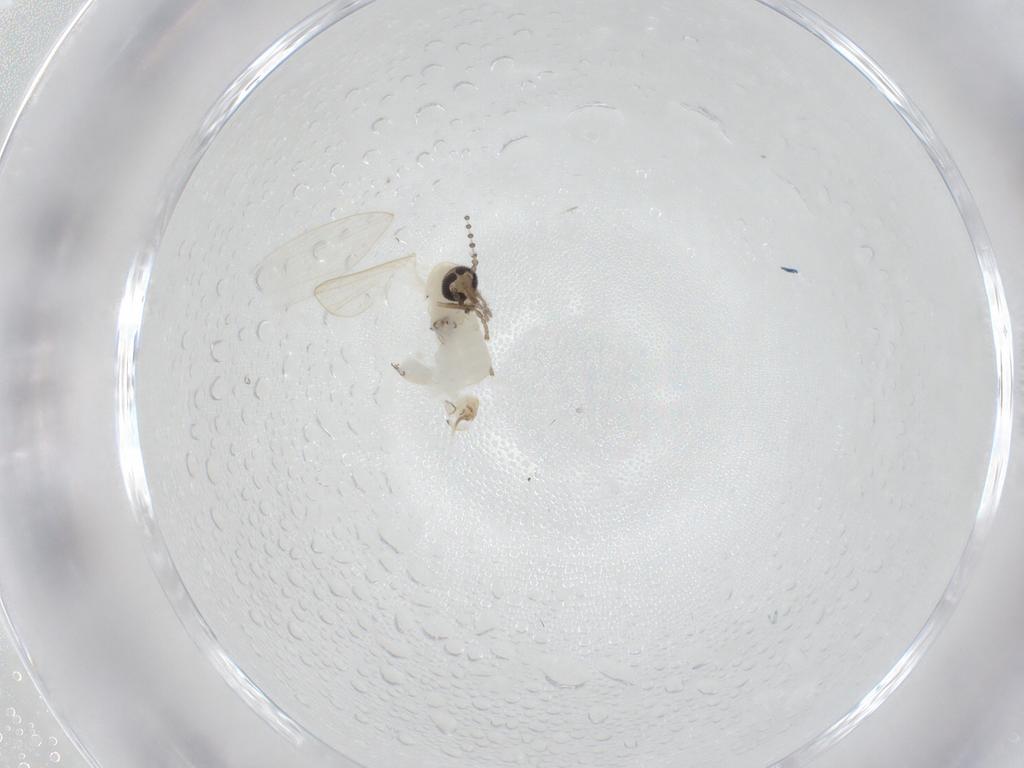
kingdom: Animalia
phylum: Arthropoda
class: Insecta
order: Diptera
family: Psychodidae
